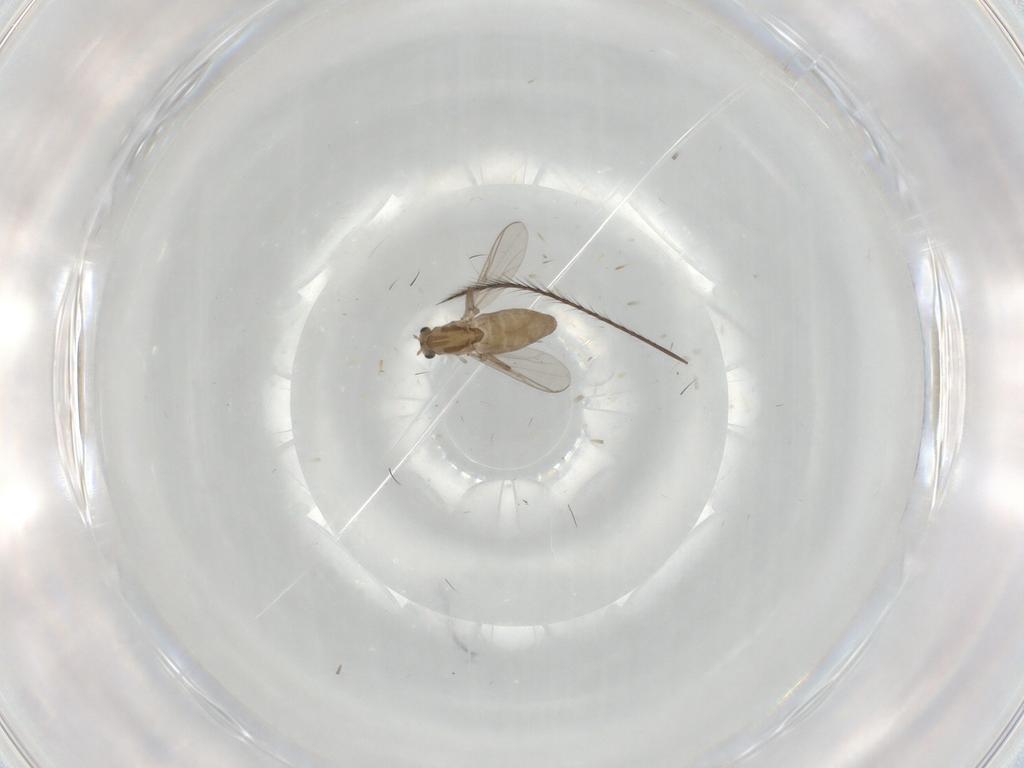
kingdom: Animalia
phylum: Arthropoda
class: Insecta
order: Diptera
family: Chironomidae
